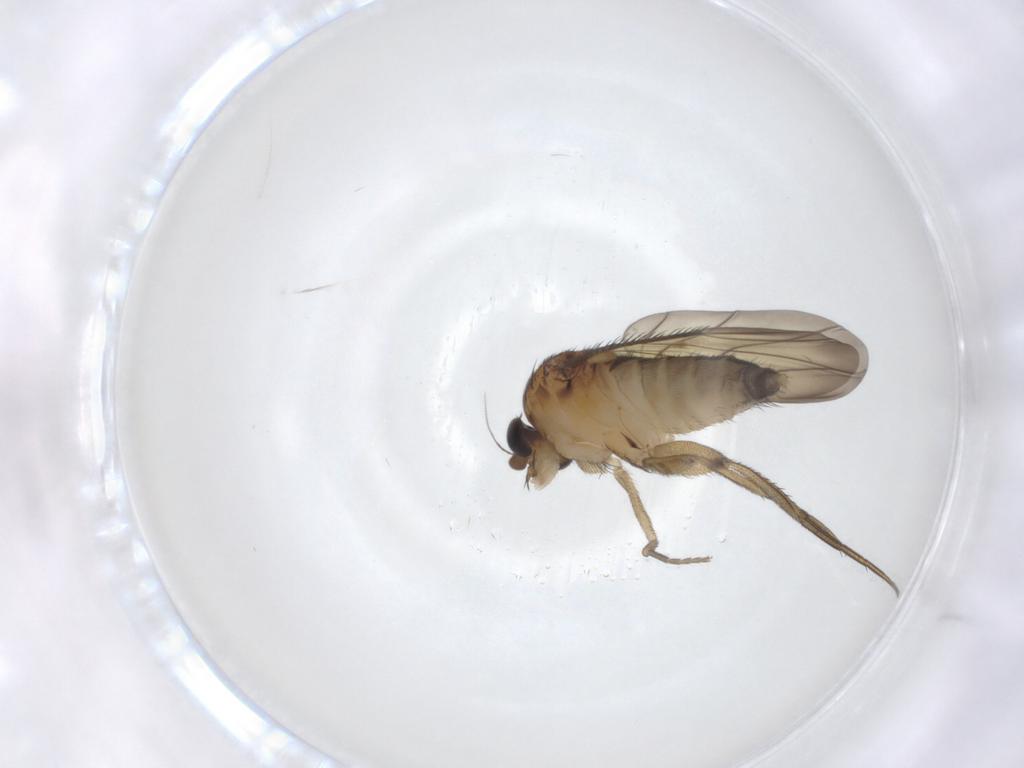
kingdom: Animalia
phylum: Arthropoda
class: Insecta
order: Diptera
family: Phoridae
